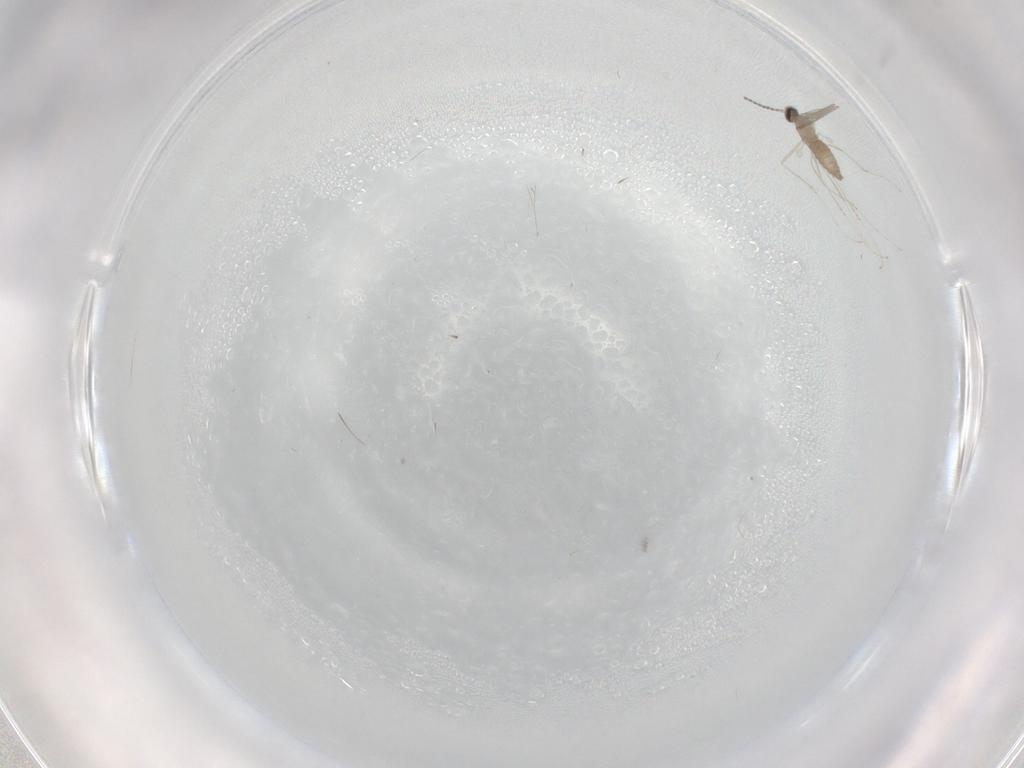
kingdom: Animalia
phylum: Arthropoda
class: Insecta
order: Diptera
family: Cecidomyiidae
